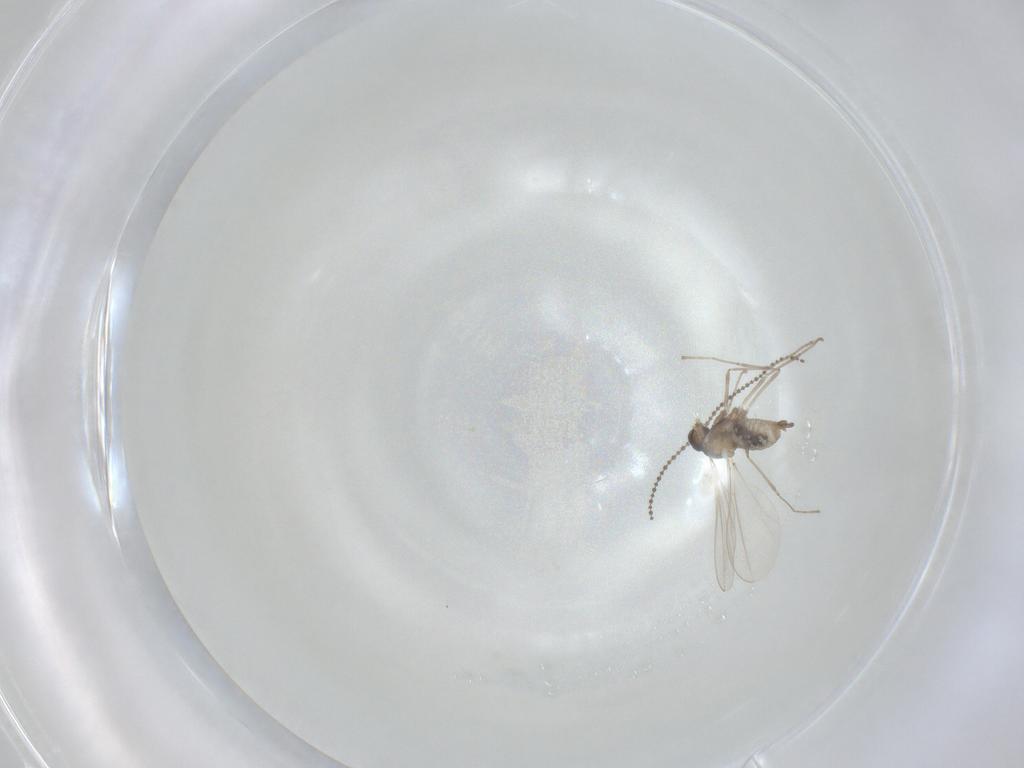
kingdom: Animalia
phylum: Arthropoda
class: Insecta
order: Diptera
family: Cecidomyiidae
